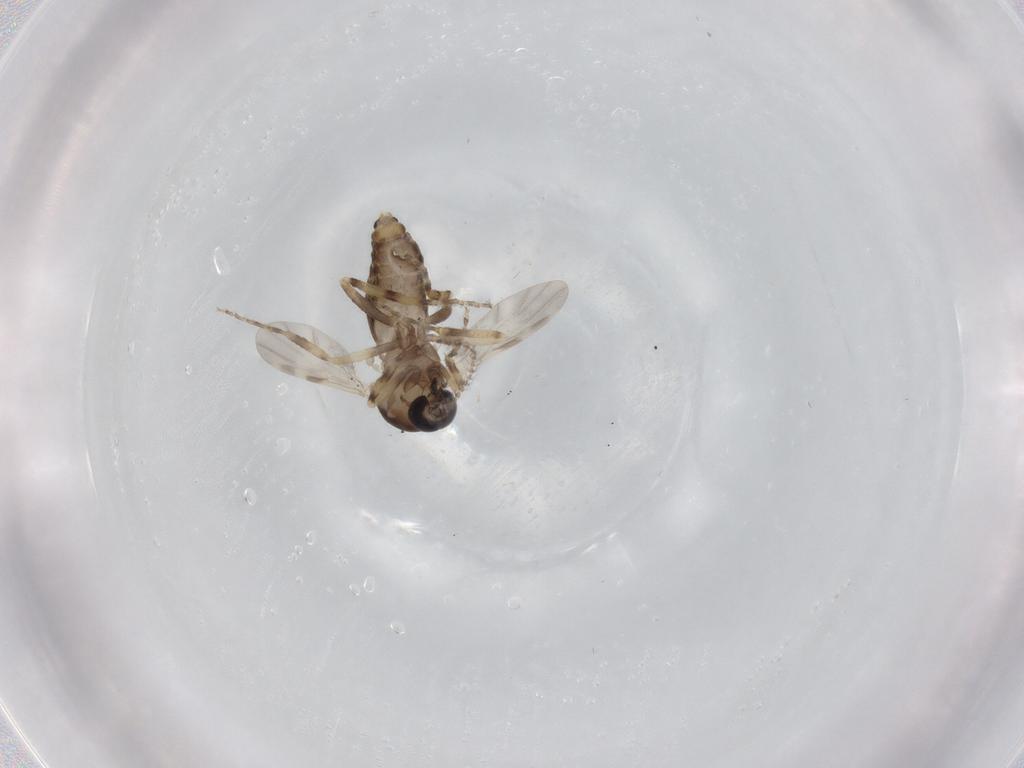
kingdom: Animalia
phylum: Arthropoda
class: Insecta
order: Diptera
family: Ceratopogonidae
